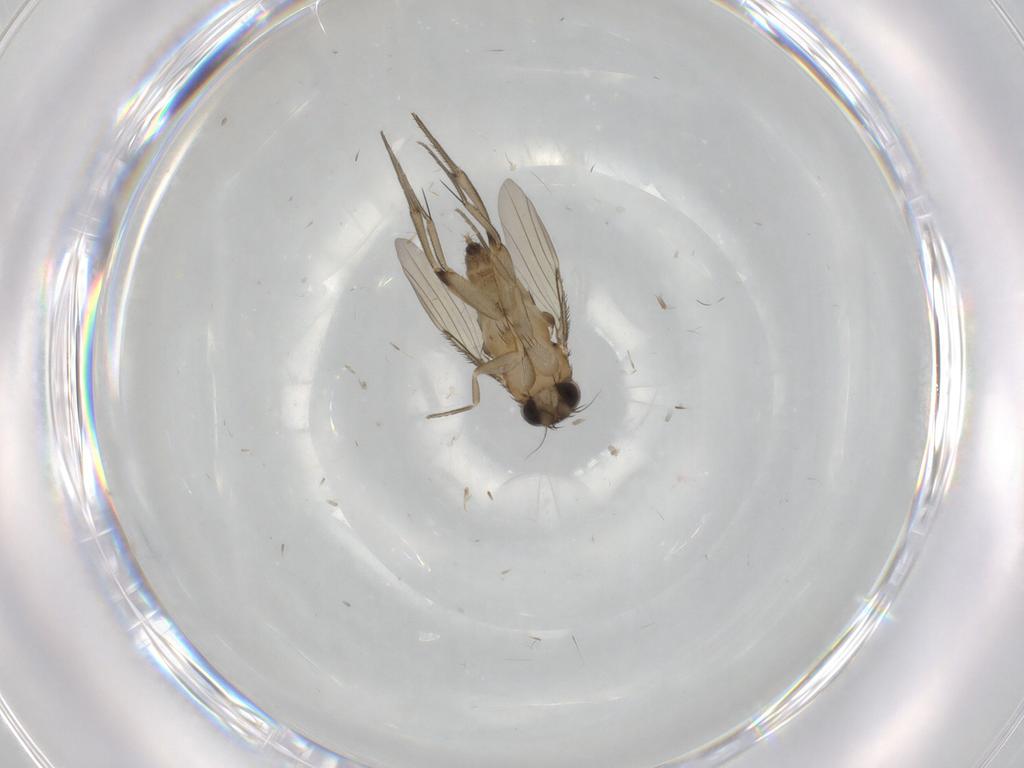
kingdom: Animalia
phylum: Arthropoda
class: Insecta
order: Diptera
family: Phoridae
